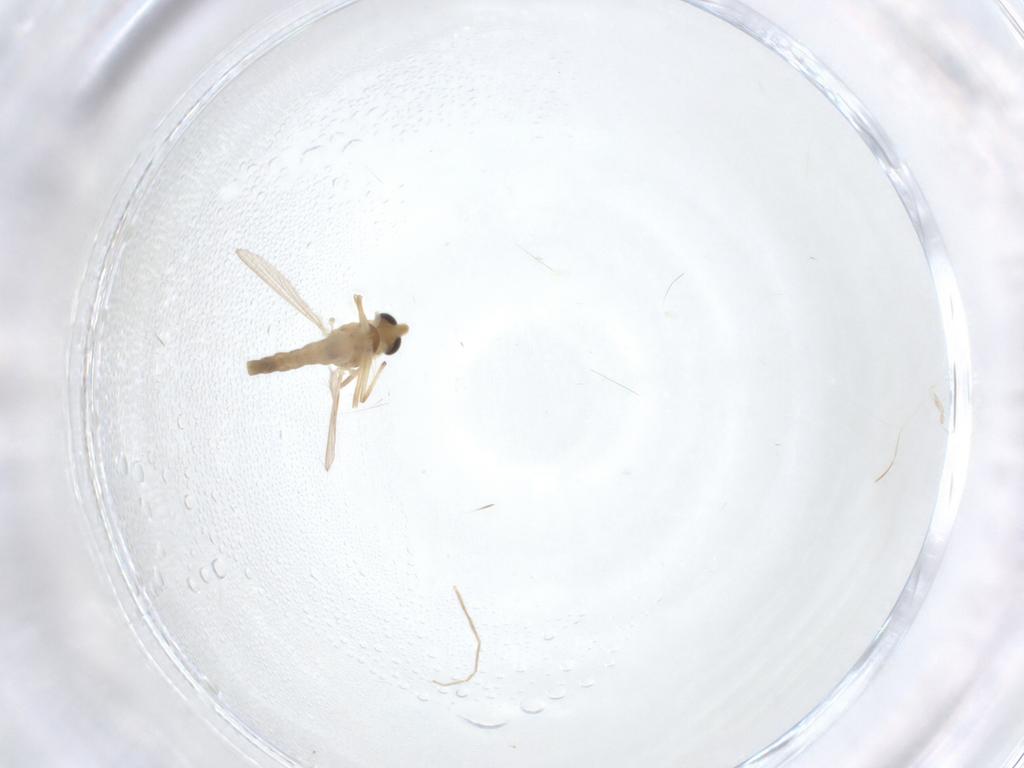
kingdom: Animalia
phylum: Arthropoda
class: Insecta
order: Diptera
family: Chironomidae
